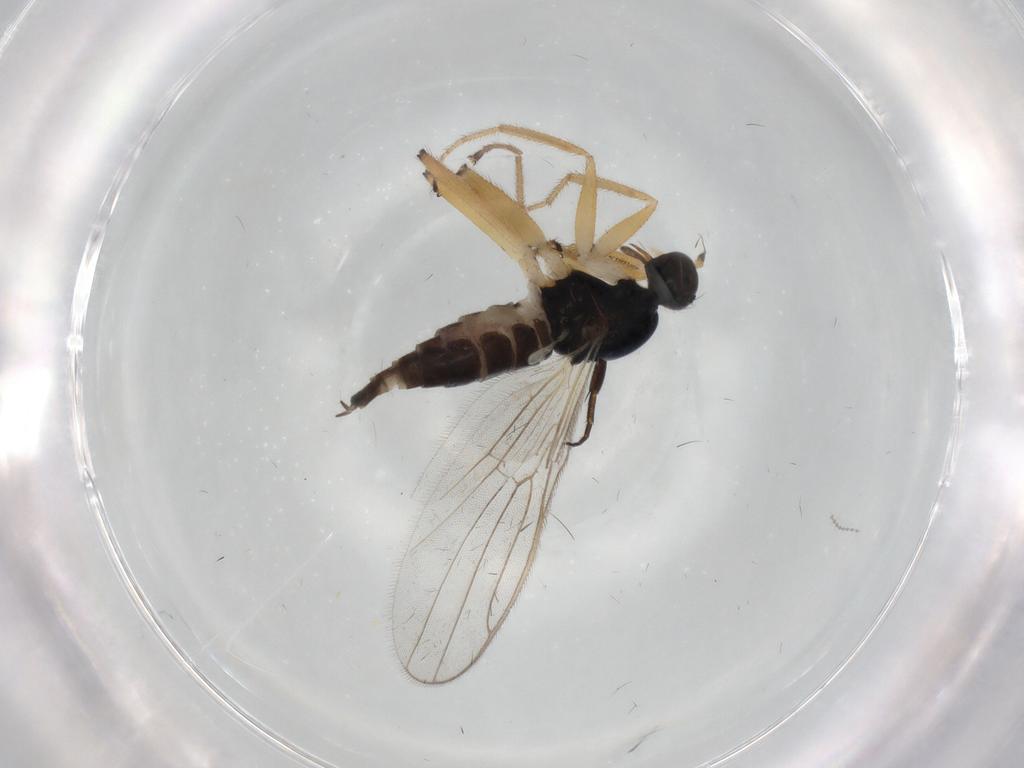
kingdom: Animalia
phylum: Arthropoda
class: Insecta
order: Diptera
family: Hybotidae
